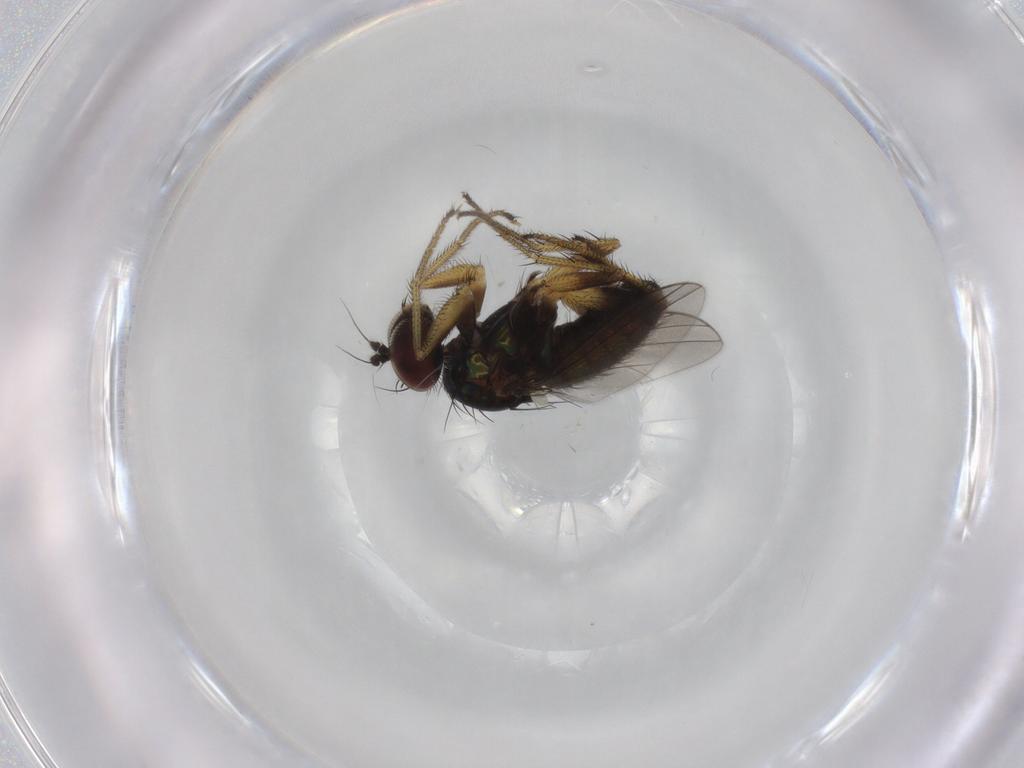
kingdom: Animalia
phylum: Arthropoda
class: Insecta
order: Diptera
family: Dolichopodidae
